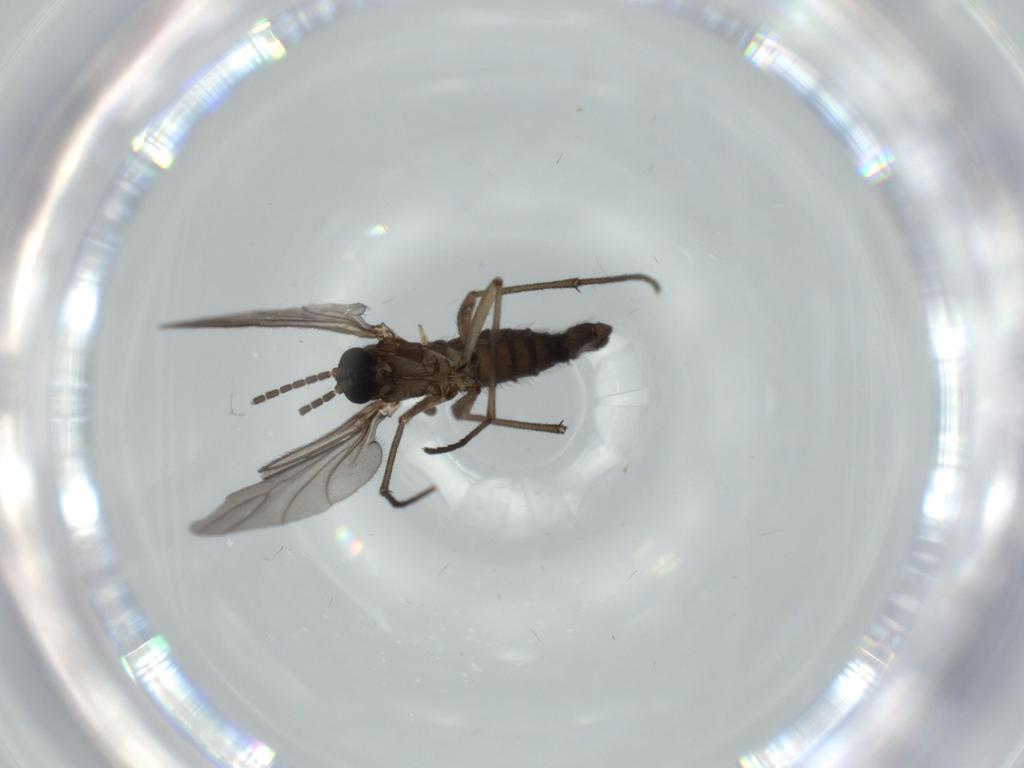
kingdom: Animalia
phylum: Arthropoda
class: Insecta
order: Diptera
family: Sciaridae
